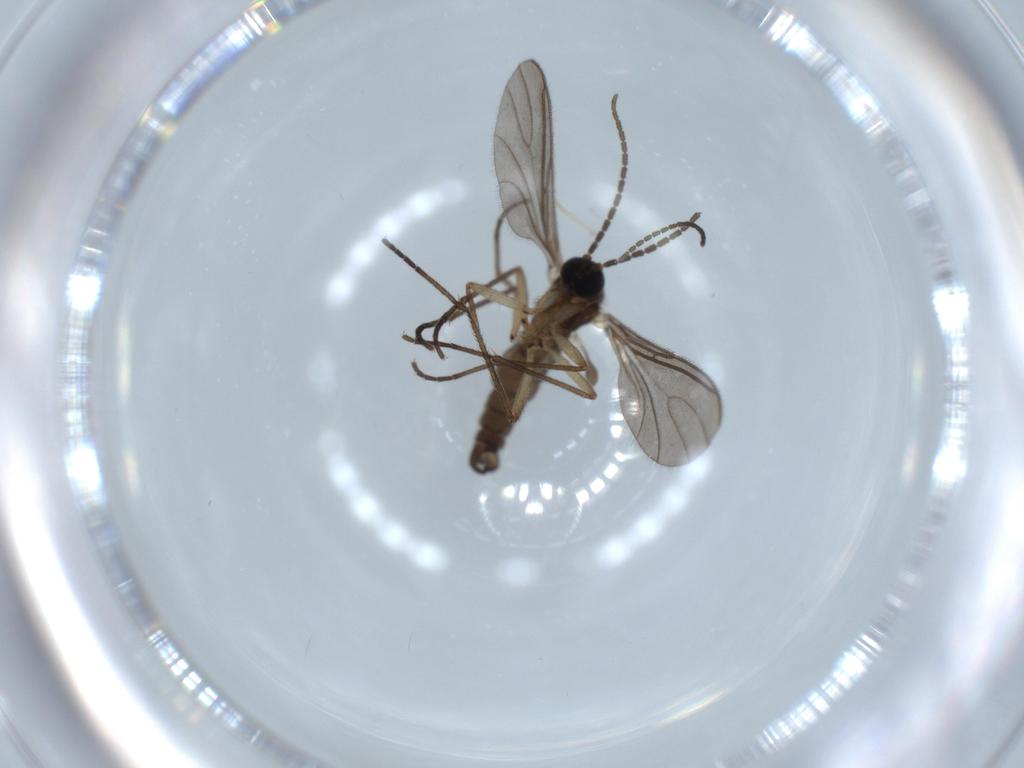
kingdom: Animalia
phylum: Arthropoda
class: Insecta
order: Diptera
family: Sciaridae
